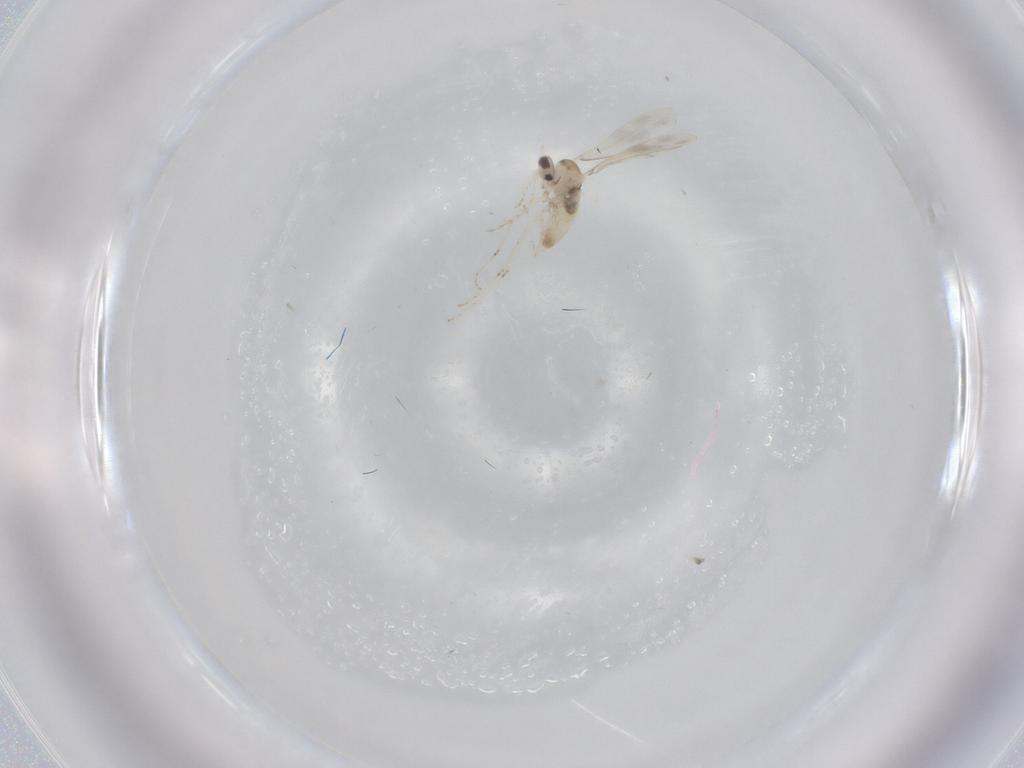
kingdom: Animalia
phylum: Arthropoda
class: Insecta
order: Diptera
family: Cecidomyiidae
